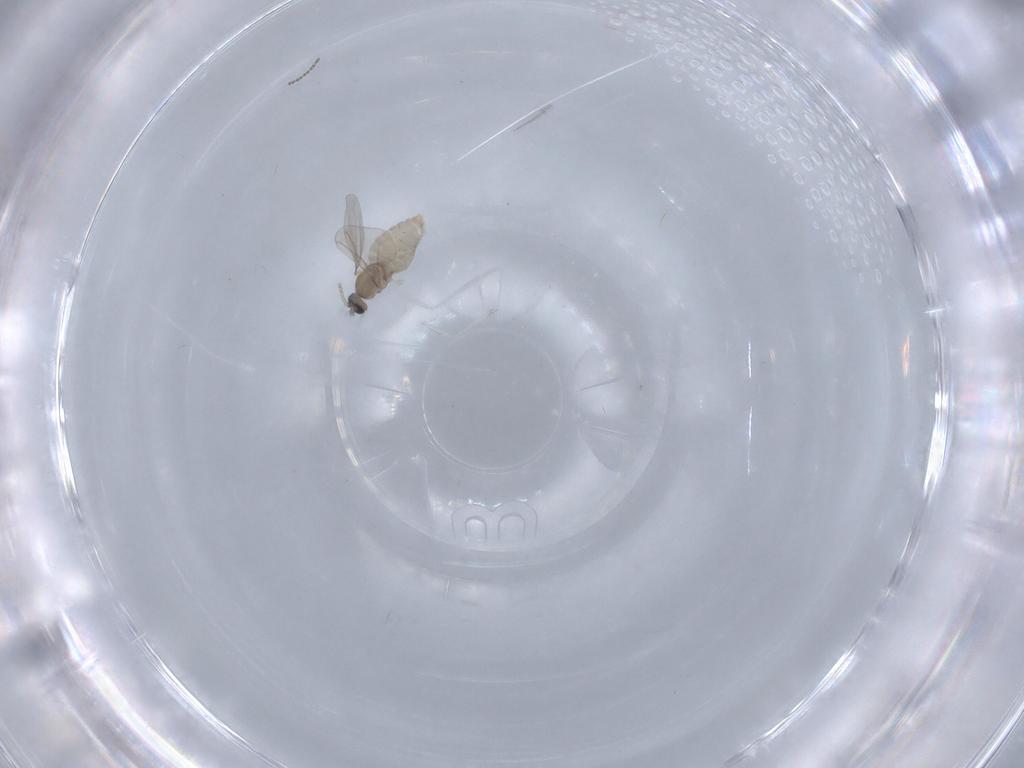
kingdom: Animalia
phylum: Arthropoda
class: Insecta
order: Diptera
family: Cecidomyiidae
